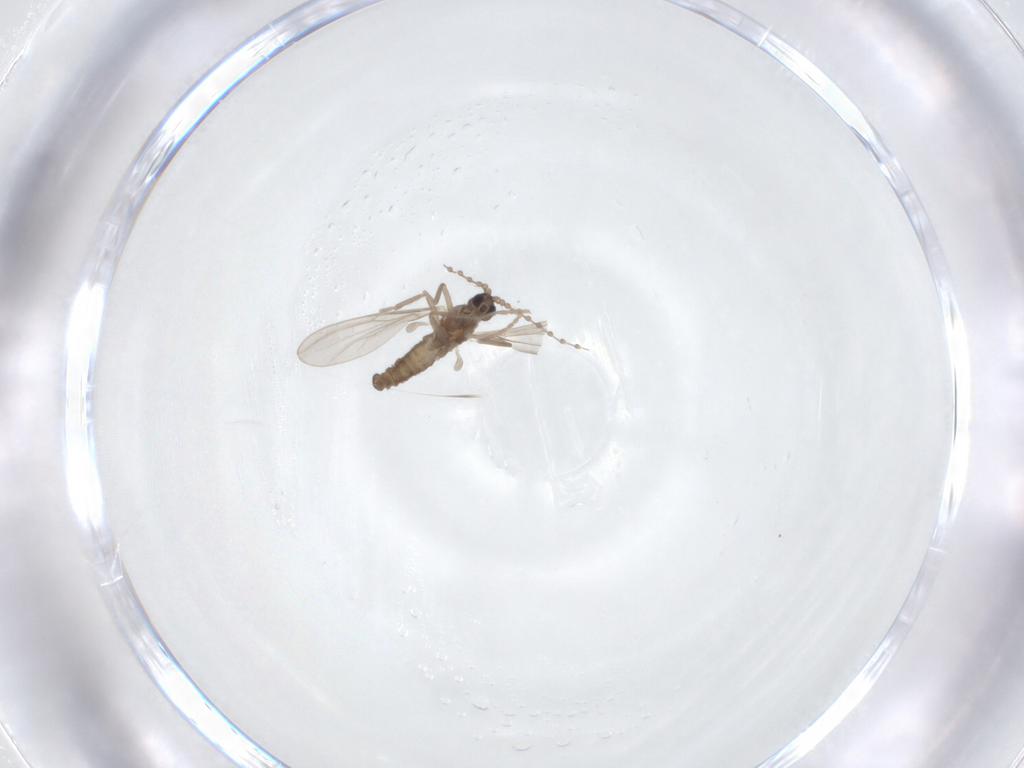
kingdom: Animalia
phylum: Arthropoda
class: Insecta
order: Diptera
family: Cecidomyiidae
